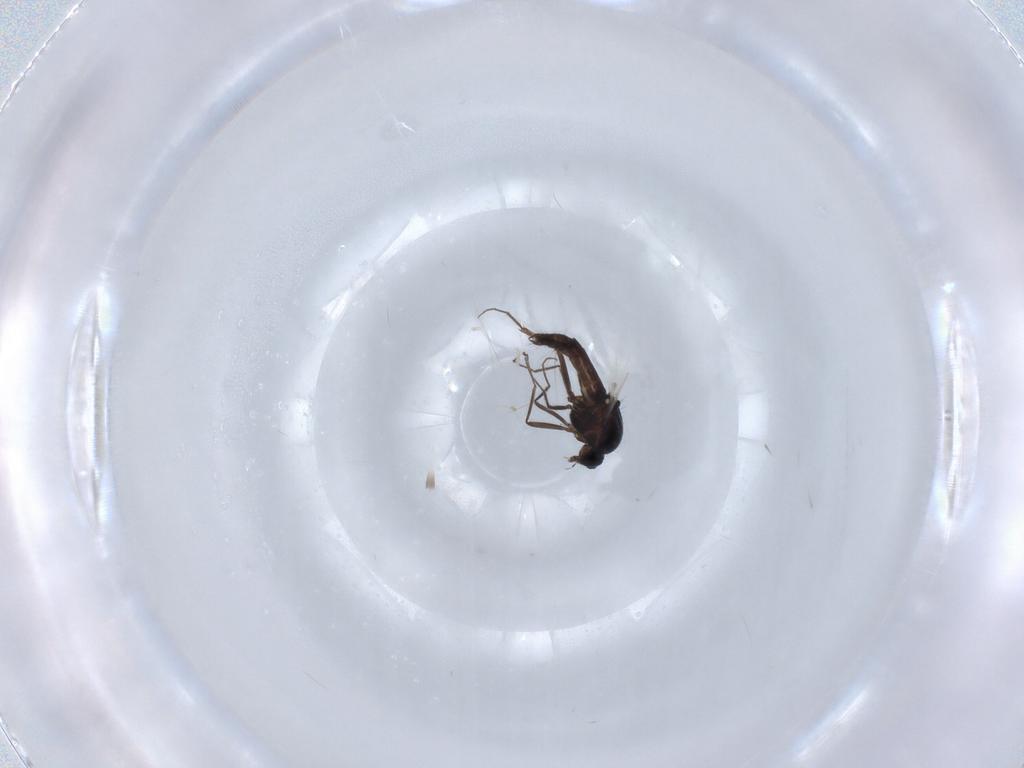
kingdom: Animalia
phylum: Arthropoda
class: Insecta
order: Diptera
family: Ceratopogonidae
